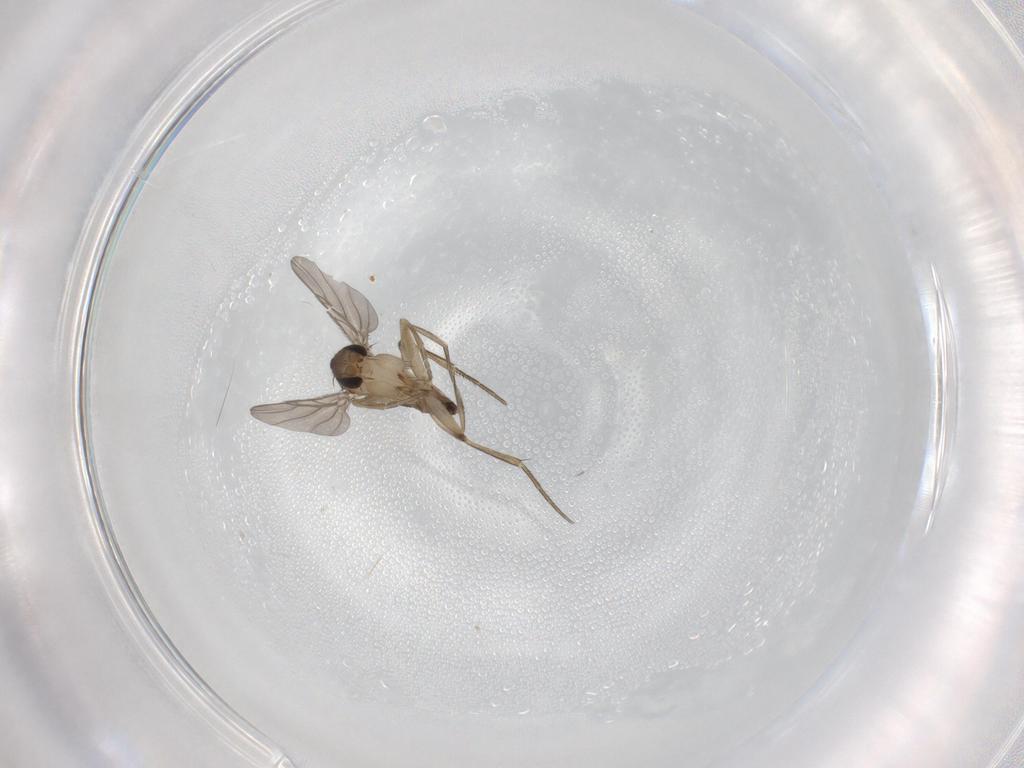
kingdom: Animalia
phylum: Arthropoda
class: Insecta
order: Diptera
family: Phoridae
